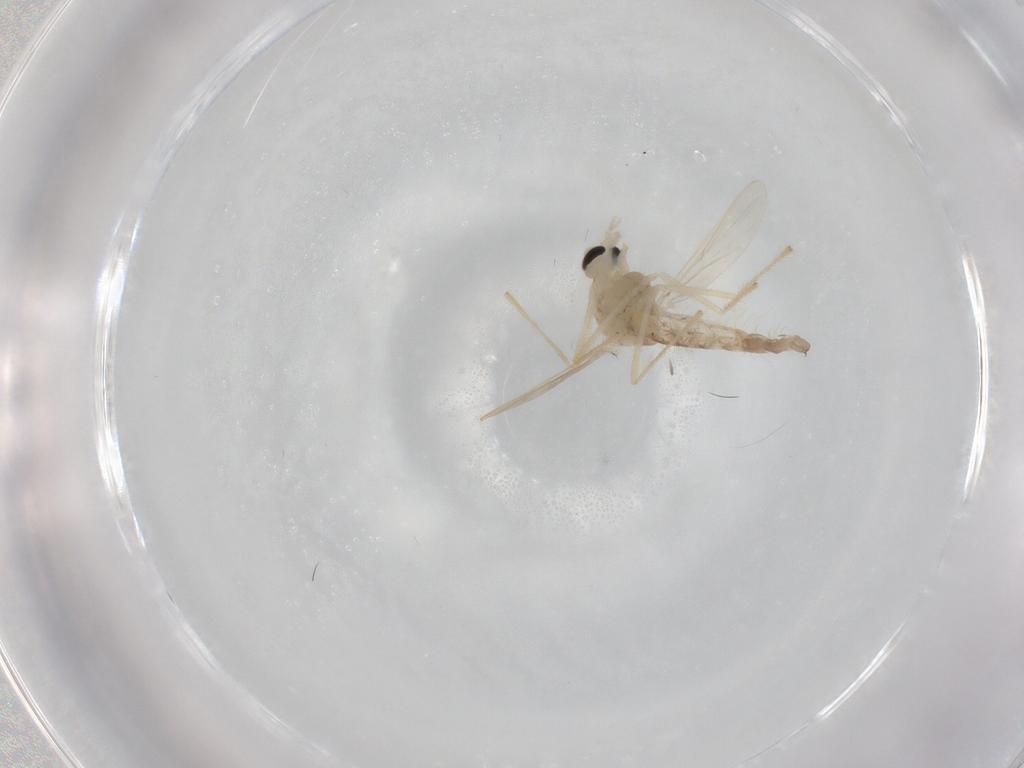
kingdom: Animalia
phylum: Arthropoda
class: Insecta
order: Diptera
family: Chironomidae
